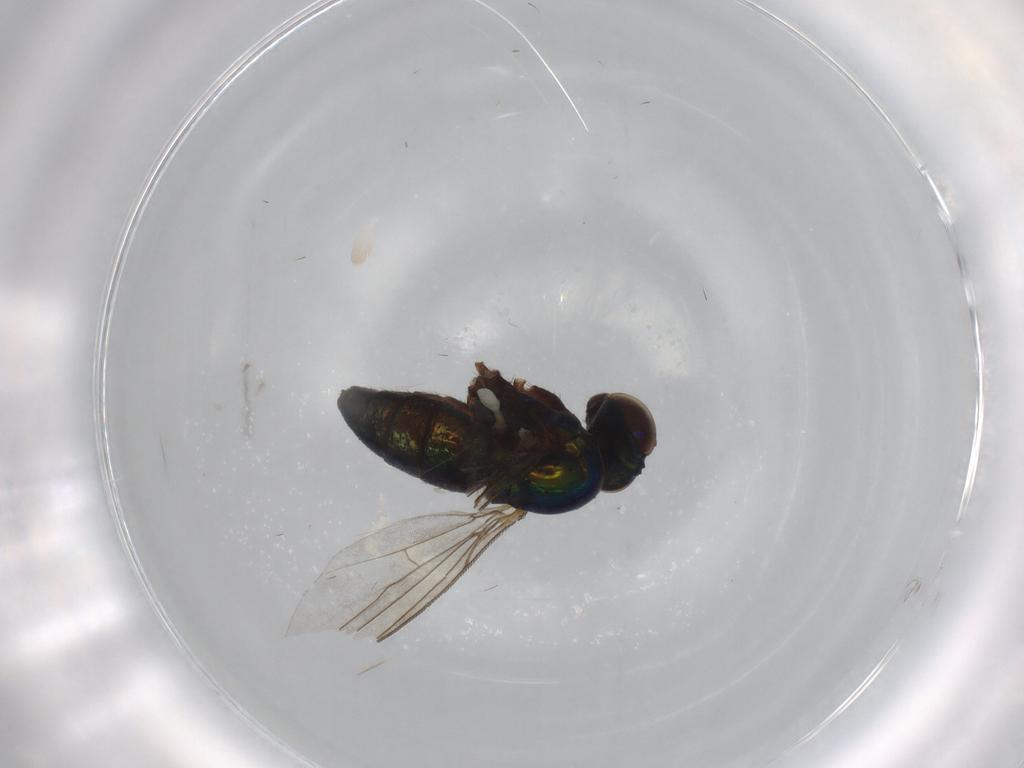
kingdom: Animalia
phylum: Arthropoda
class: Insecta
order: Diptera
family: Dolichopodidae
